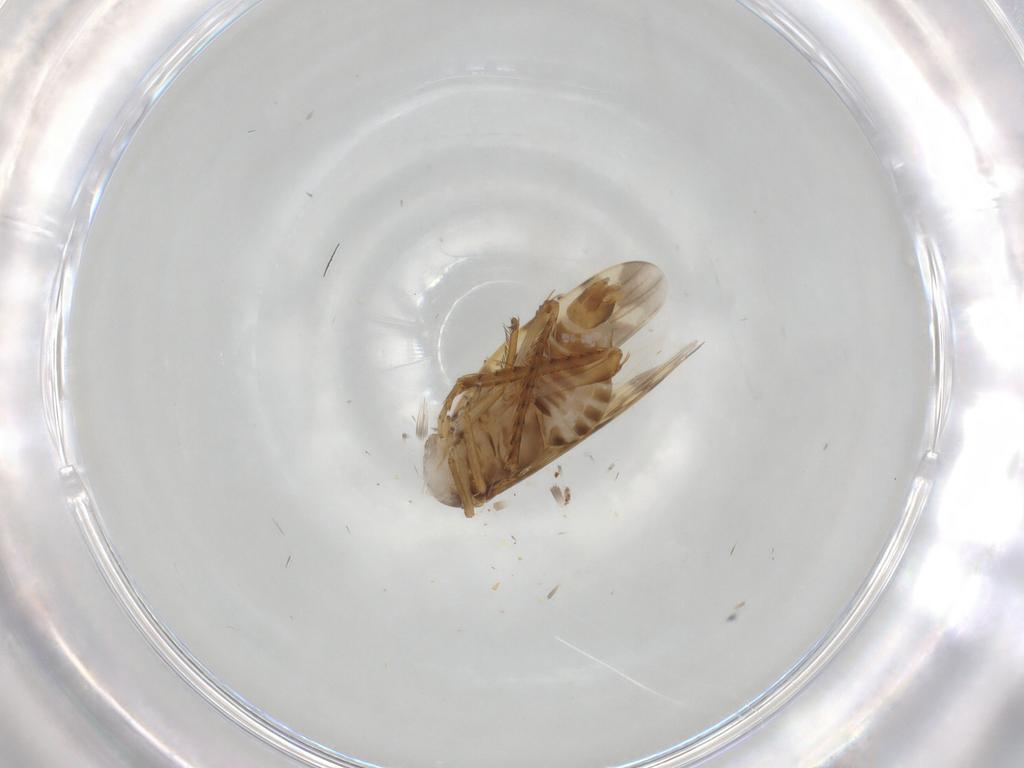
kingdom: Animalia
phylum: Arthropoda
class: Insecta
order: Hemiptera
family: Cicadellidae
